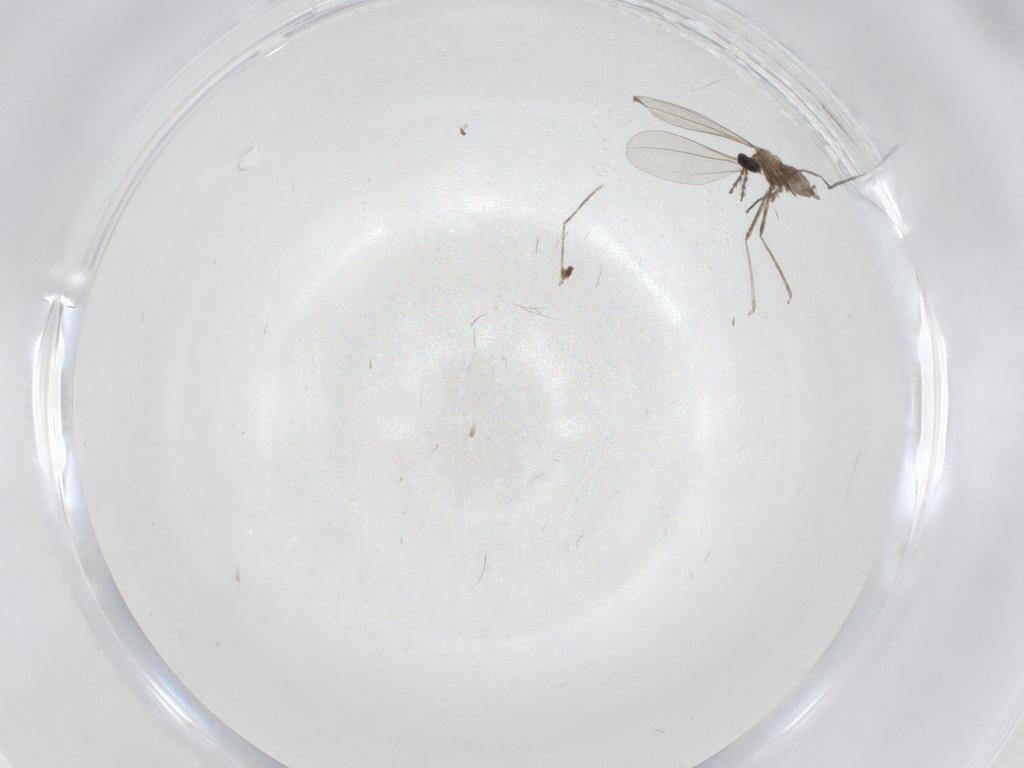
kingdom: Animalia
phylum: Arthropoda
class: Insecta
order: Diptera
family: Cecidomyiidae
